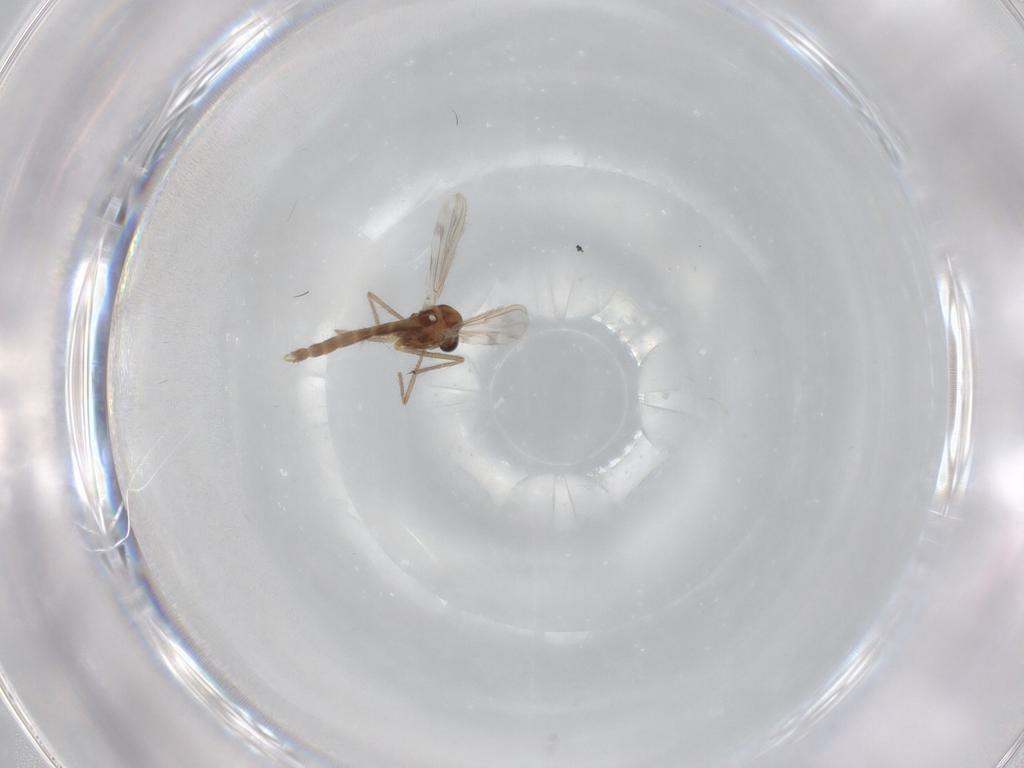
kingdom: Animalia
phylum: Arthropoda
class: Insecta
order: Diptera
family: Chironomidae
